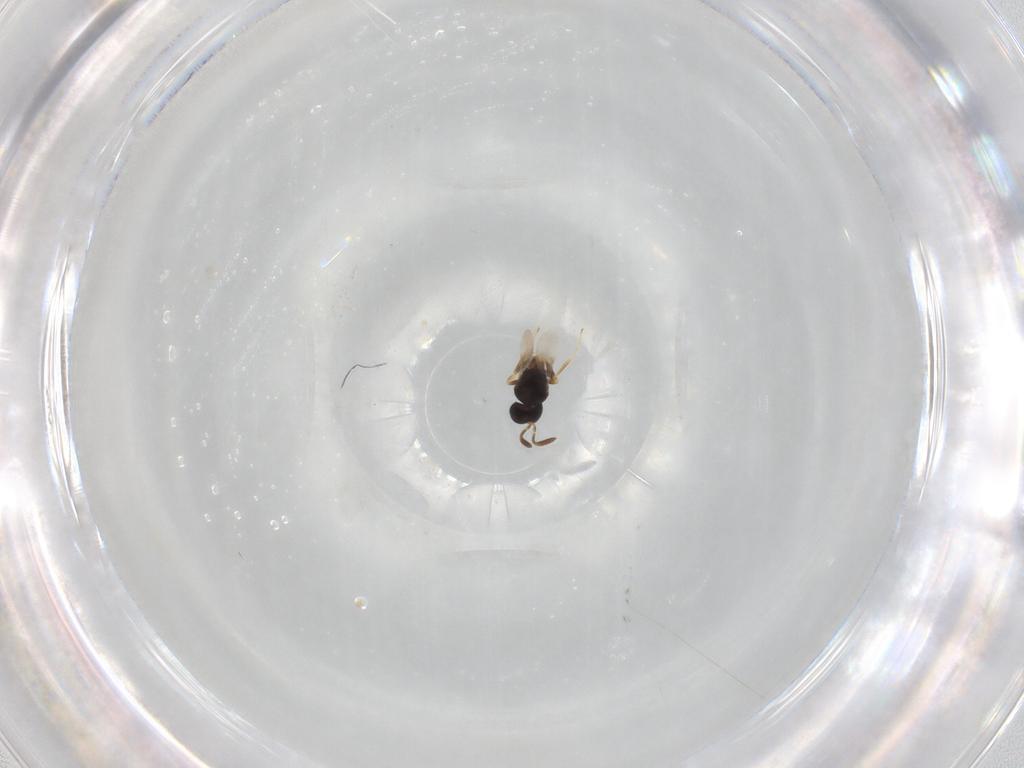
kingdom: Animalia
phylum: Arthropoda
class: Insecta
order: Hymenoptera
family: Scelionidae
